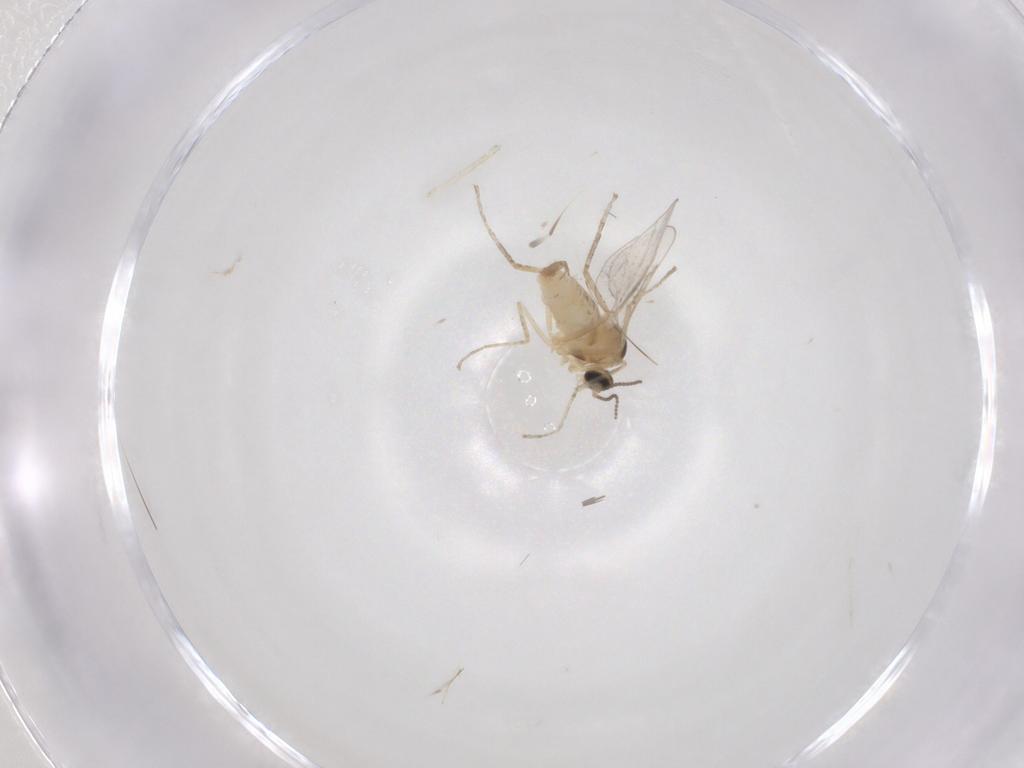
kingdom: Animalia
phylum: Arthropoda
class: Insecta
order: Diptera
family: Cecidomyiidae
